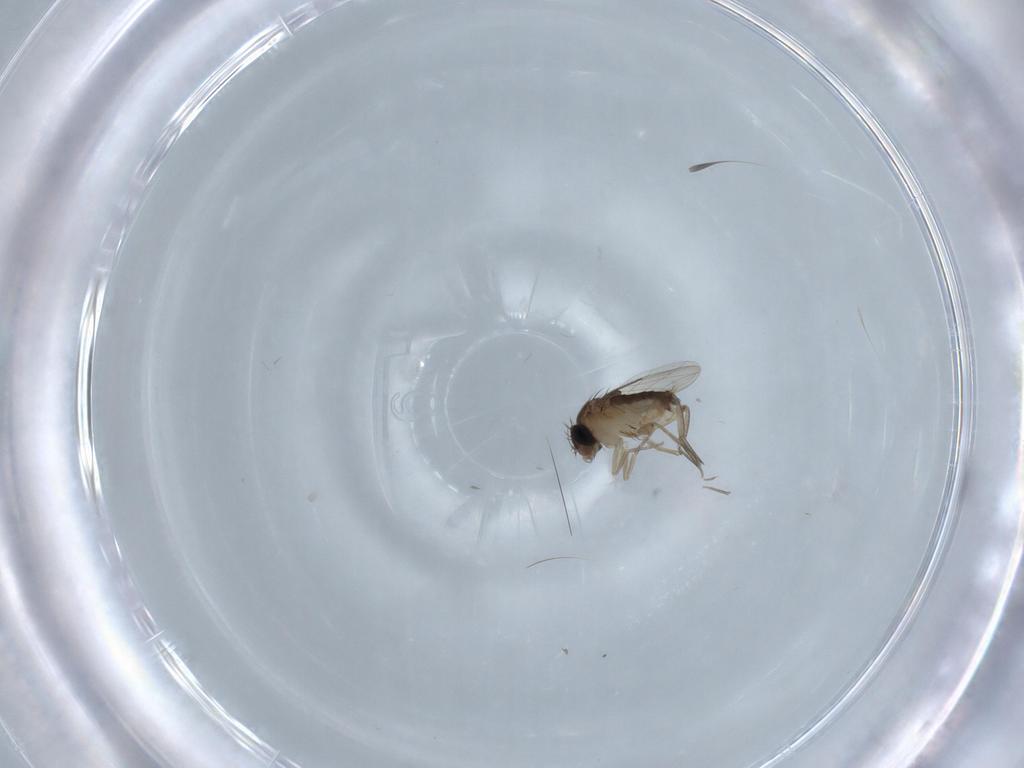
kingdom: Animalia
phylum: Arthropoda
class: Insecta
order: Diptera
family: Phoridae
